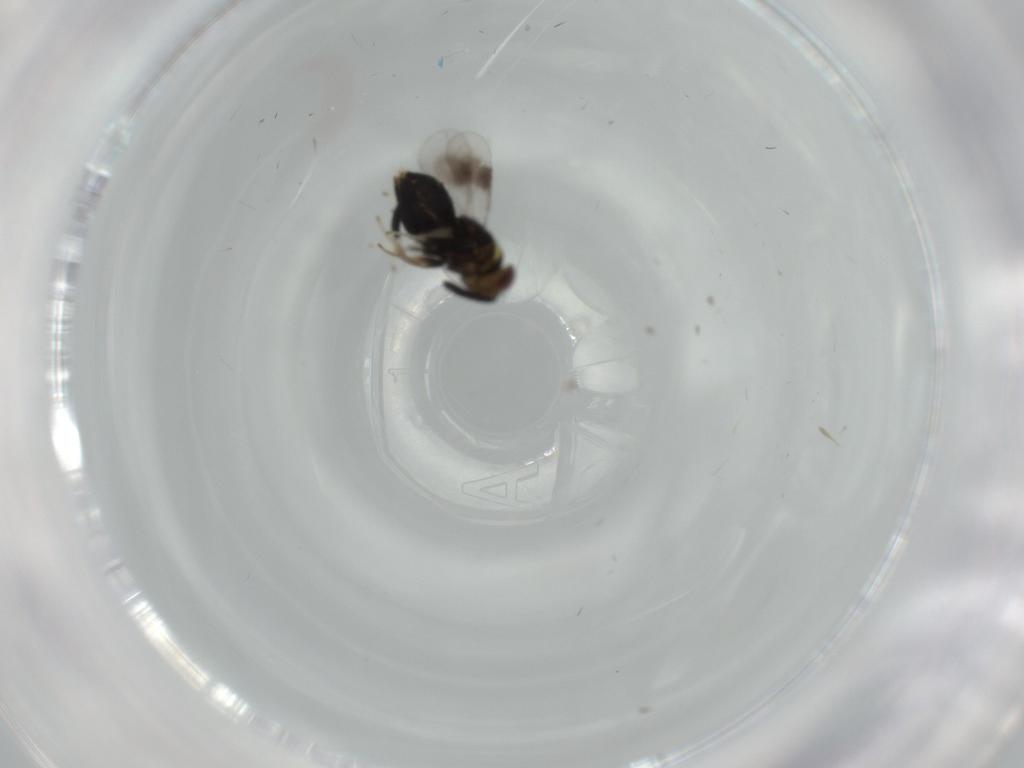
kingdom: Animalia
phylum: Arthropoda
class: Insecta
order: Hymenoptera
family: Aphelinidae
